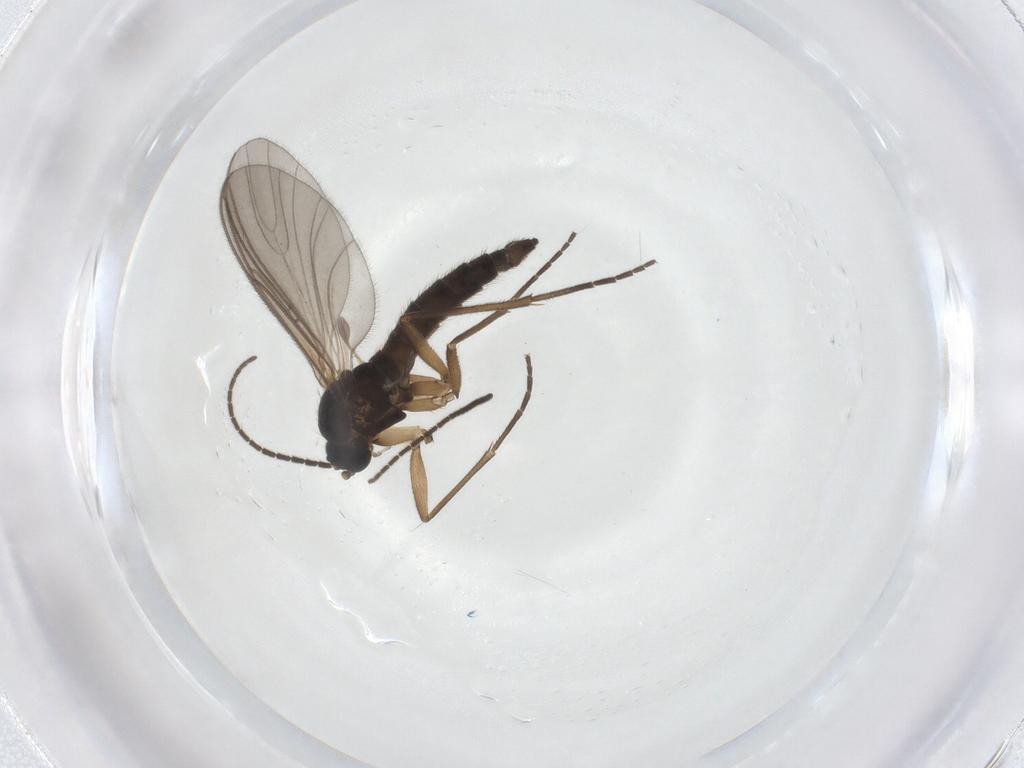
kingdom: Animalia
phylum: Arthropoda
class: Insecta
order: Diptera
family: Sciaridae
